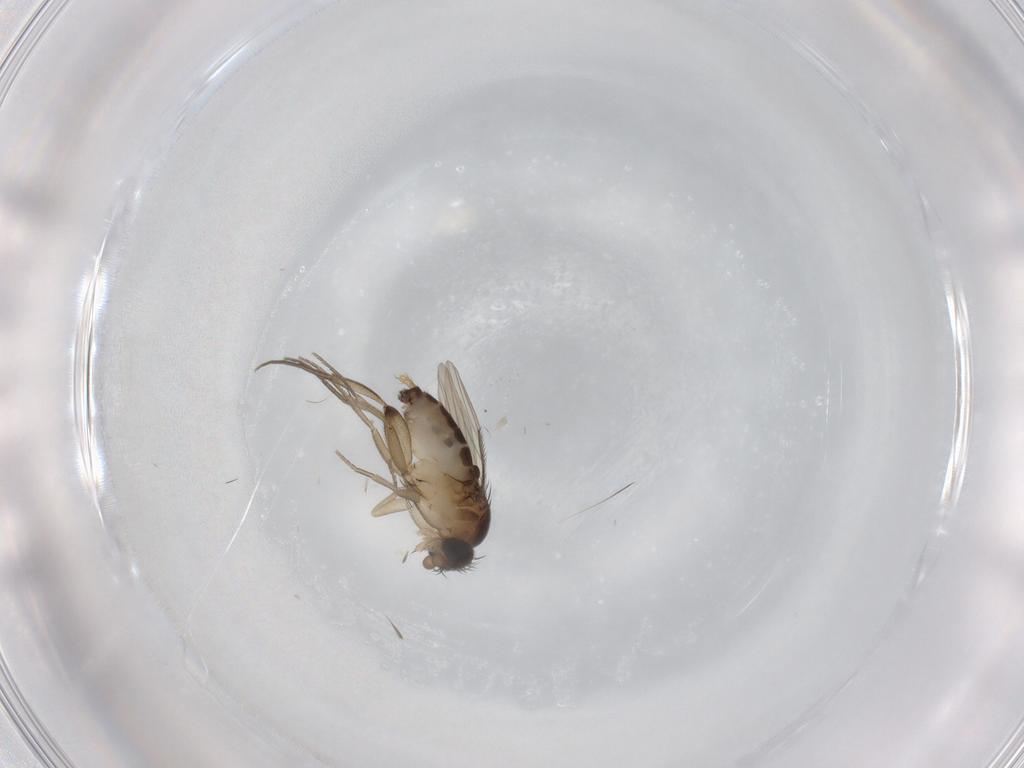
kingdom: Animalia
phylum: Arthropoda
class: Insecta
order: Diptera
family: Phoridae
